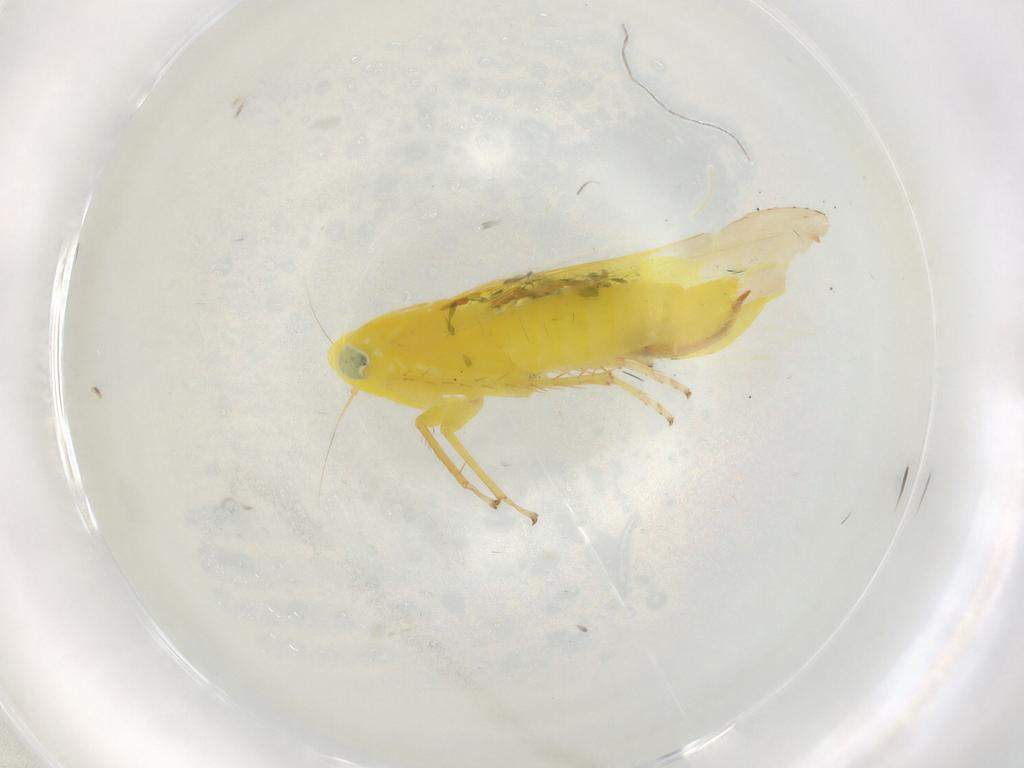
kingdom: Animalia
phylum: Arthropoda
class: Insecta
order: Hemiptera
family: Cicadellidae
